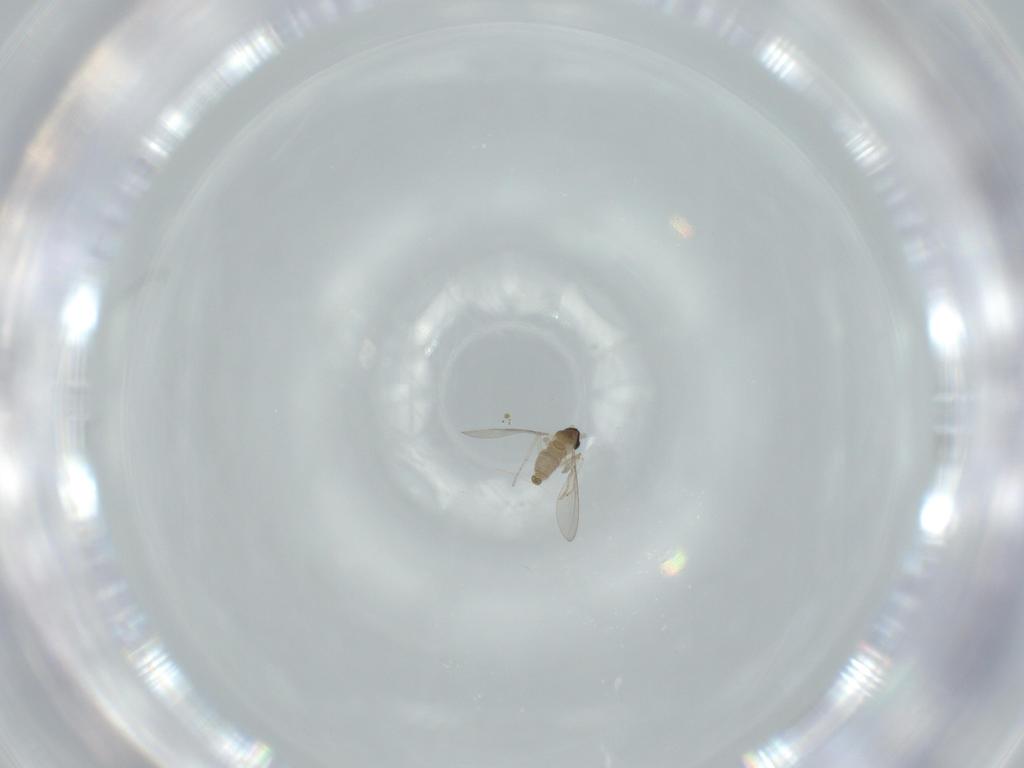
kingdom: Animalia
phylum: Arthropoda
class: Insecta
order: Diptera
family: Cecidomyiidae
